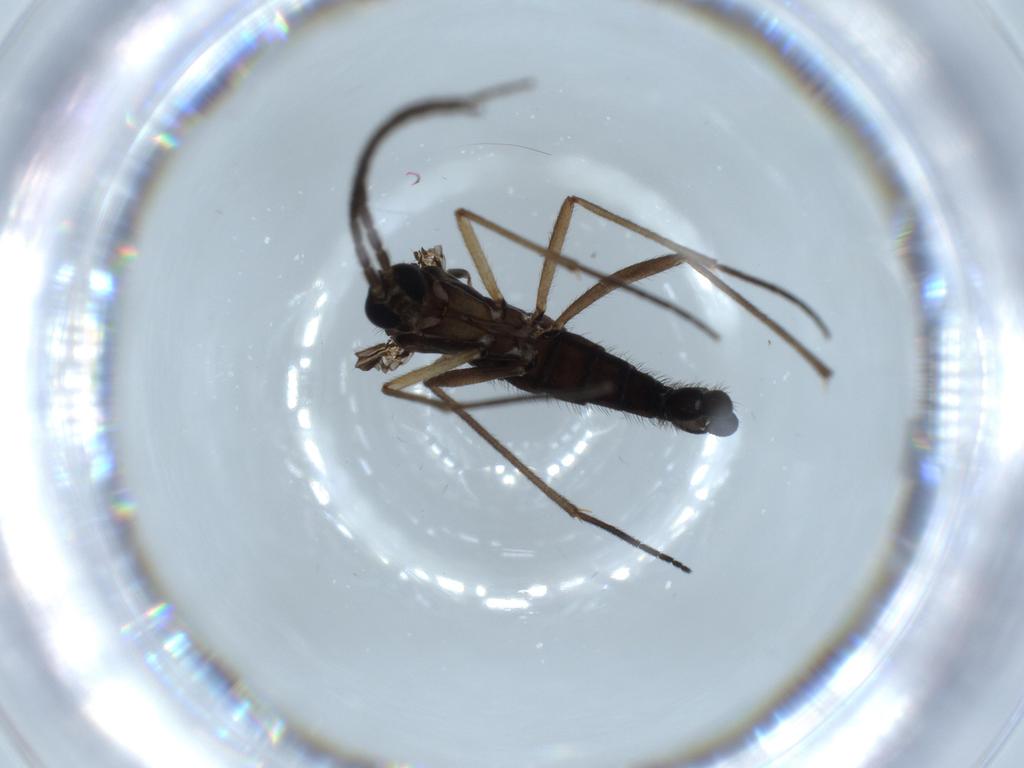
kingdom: Animalia
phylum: Arthropoda
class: Insecta
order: Diptera
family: Sciaridae
